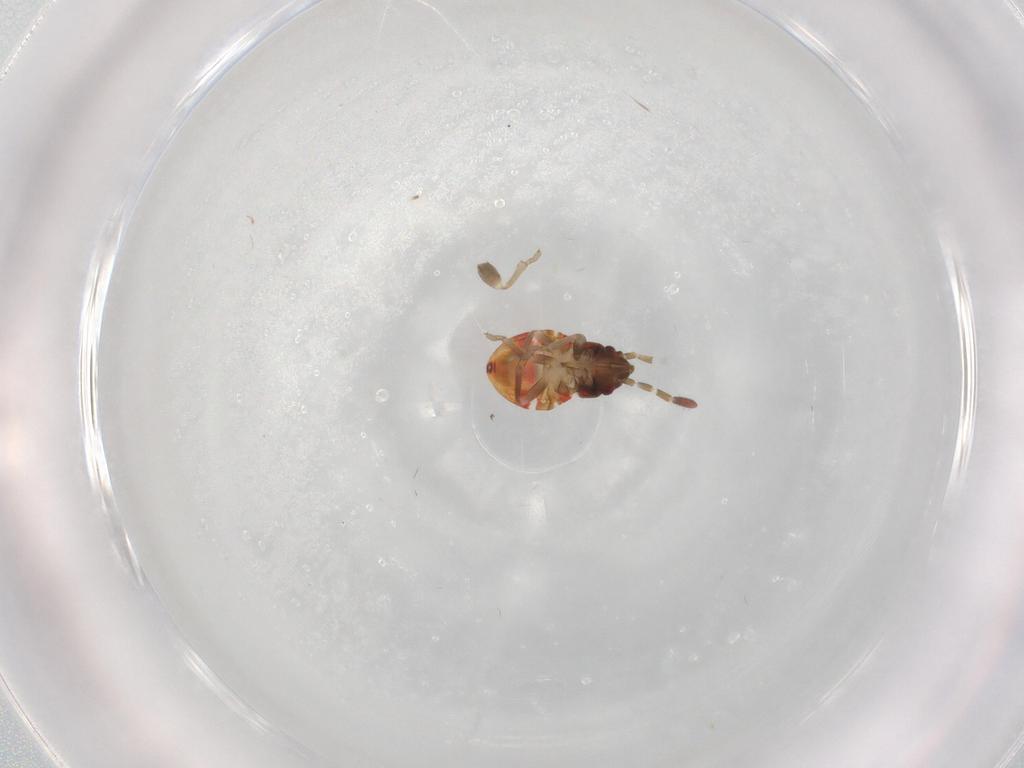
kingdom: Animalia
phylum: Arthropoda
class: Insecta
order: Hemiptera
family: Rhyparochromidae
